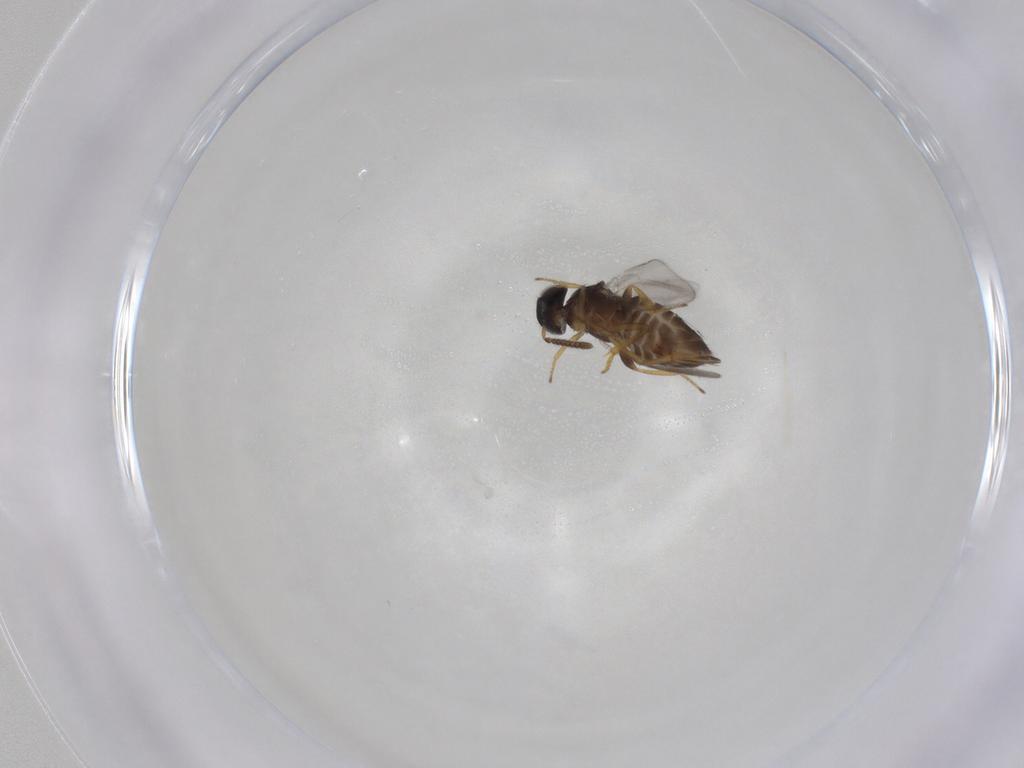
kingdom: Animalia
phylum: Arthropoda
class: Insecta
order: Hymenoptera
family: Encyrtidae
